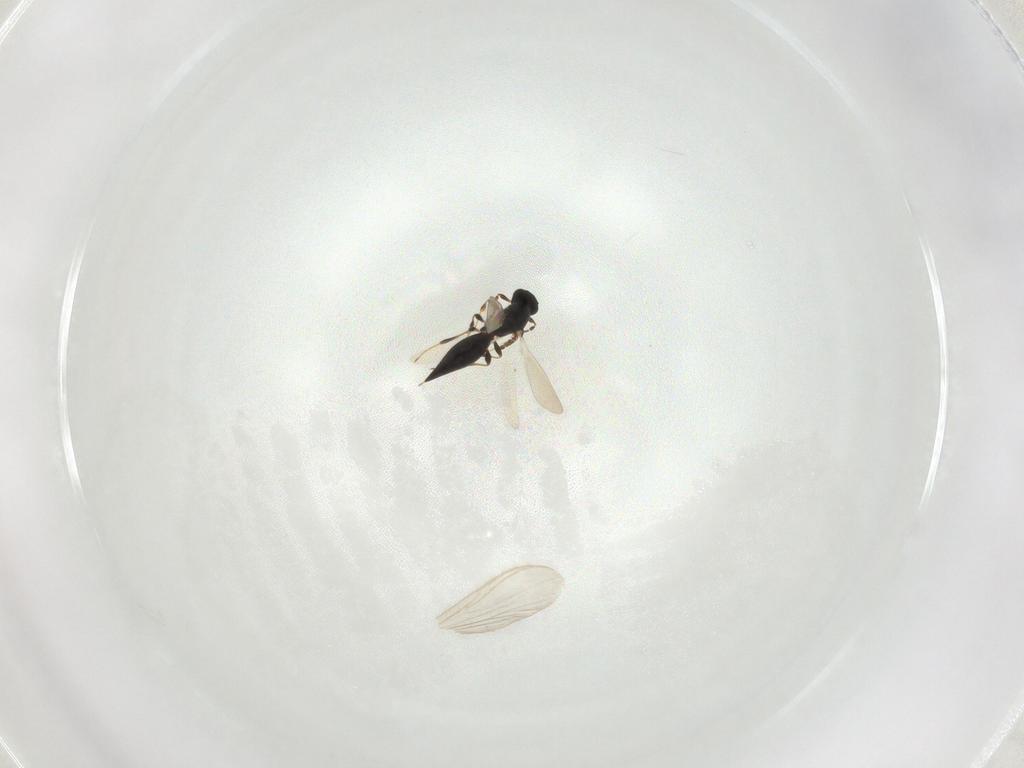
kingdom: Animalia
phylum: Arthropoda
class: Insecta
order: Hymenoptera
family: Platygastridae
